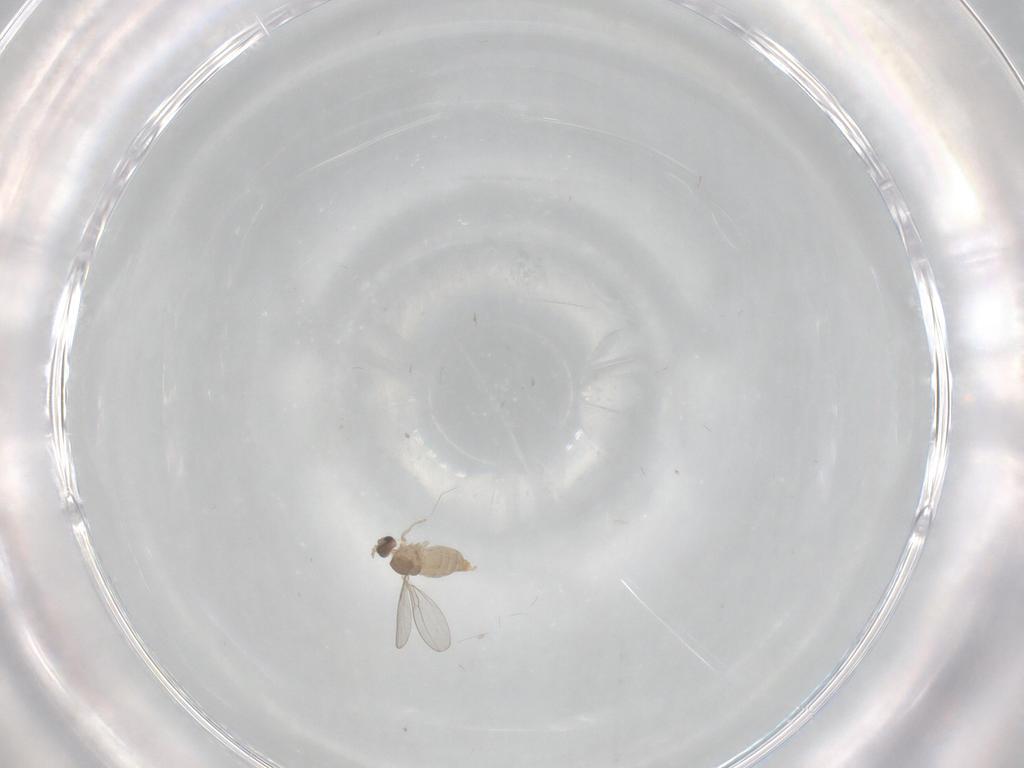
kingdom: Animalia
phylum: Arthropoda
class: Insecta
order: Diptera
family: Cecidomyiidae
